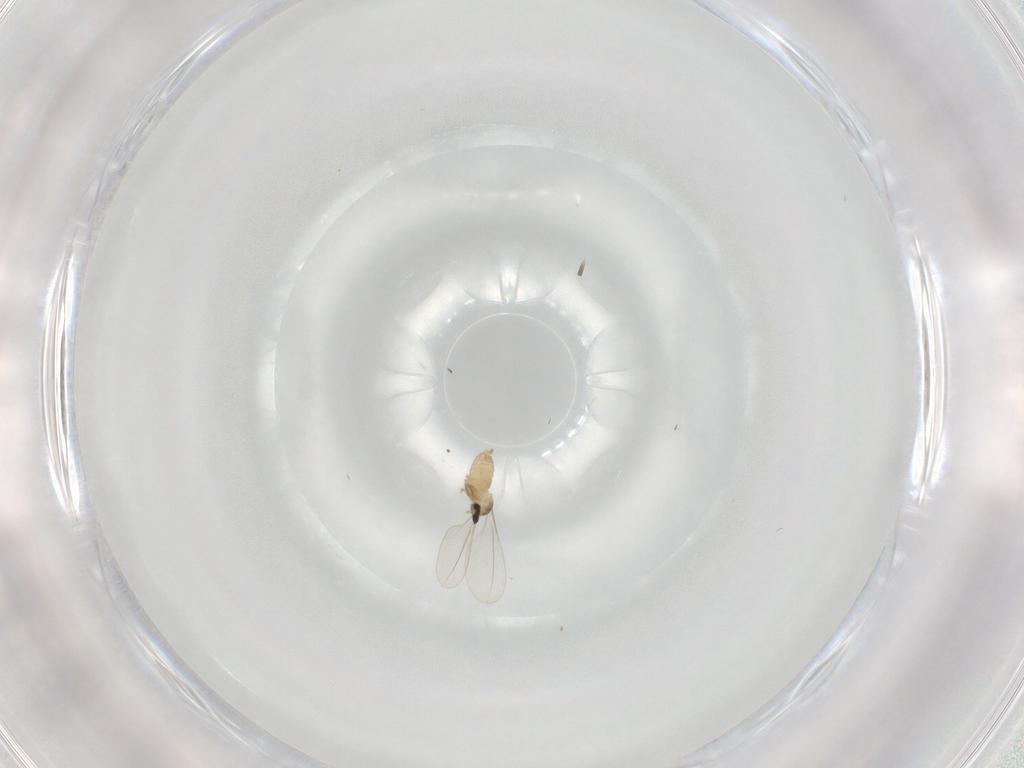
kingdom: Animalia
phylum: Arthropoda
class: Insecta
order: Diptera
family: Cecidomyiidae
